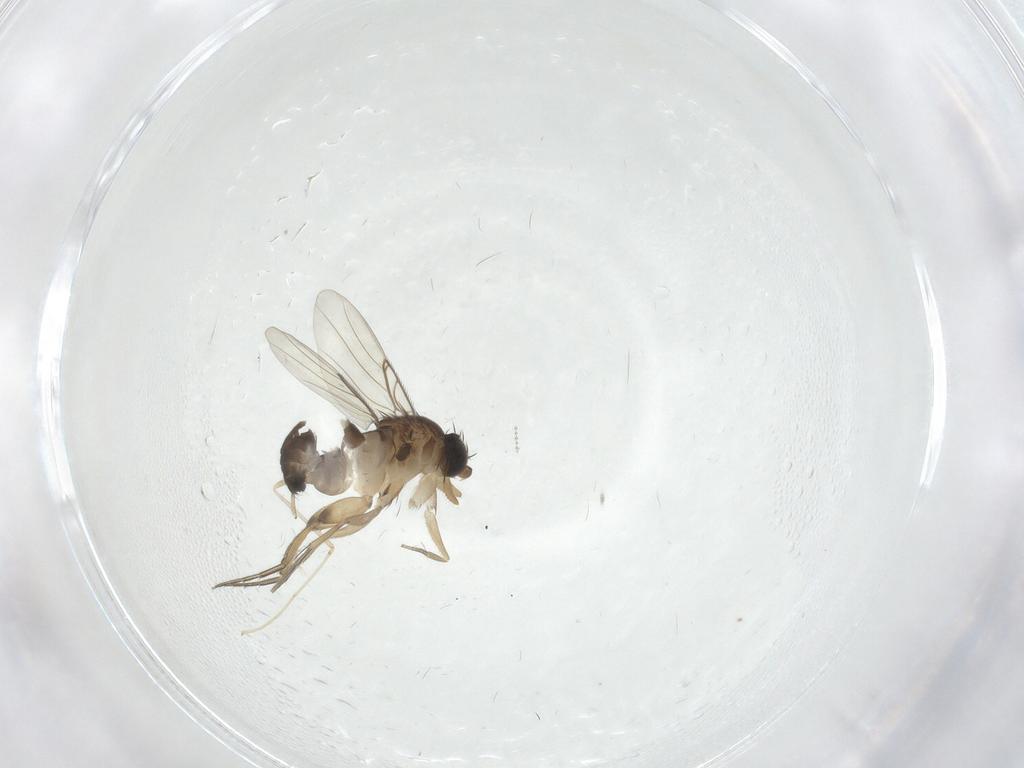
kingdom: Animalia
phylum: Arthropoda
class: Insecta
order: Diptera
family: Phoridae
